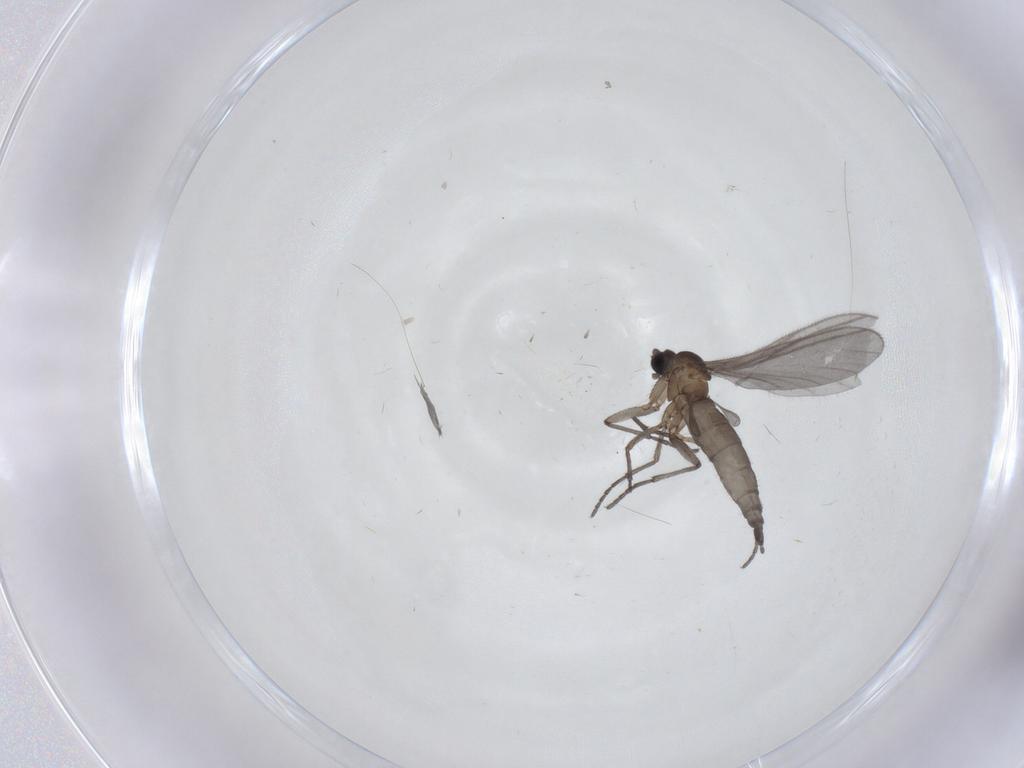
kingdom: Animalia
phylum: Arthropoda
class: Insecta
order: Diptera
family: Sciaridae
